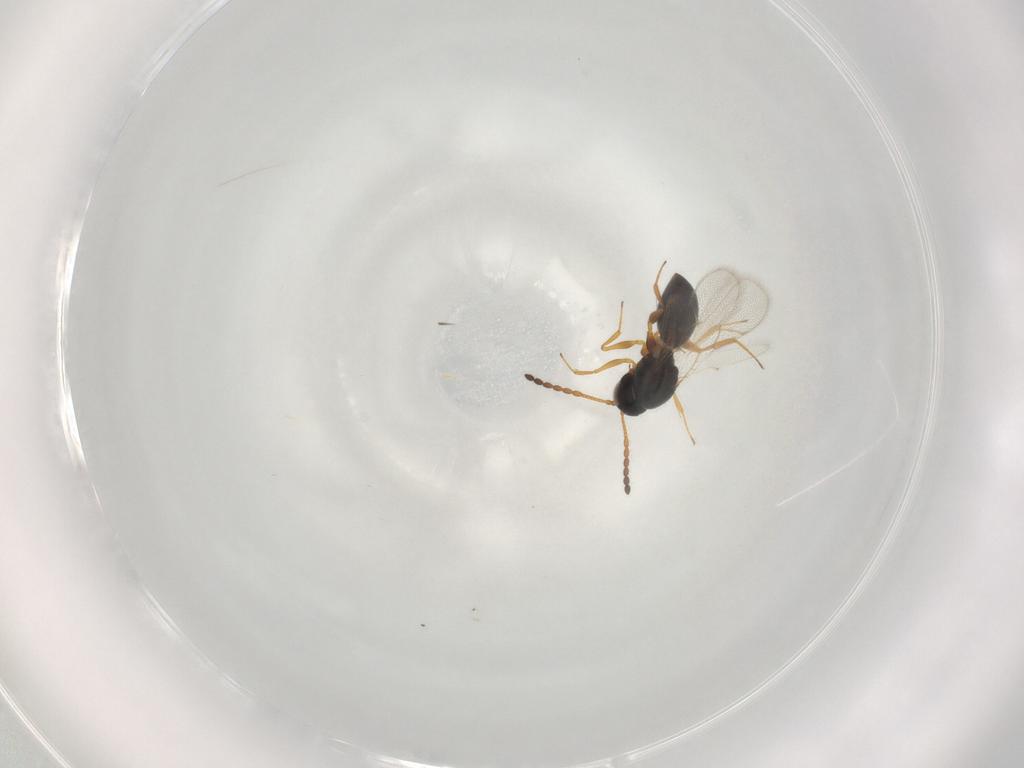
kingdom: Animalia
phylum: Arthropoda
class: Insecta
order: Hymenoptera
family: Figitidae
